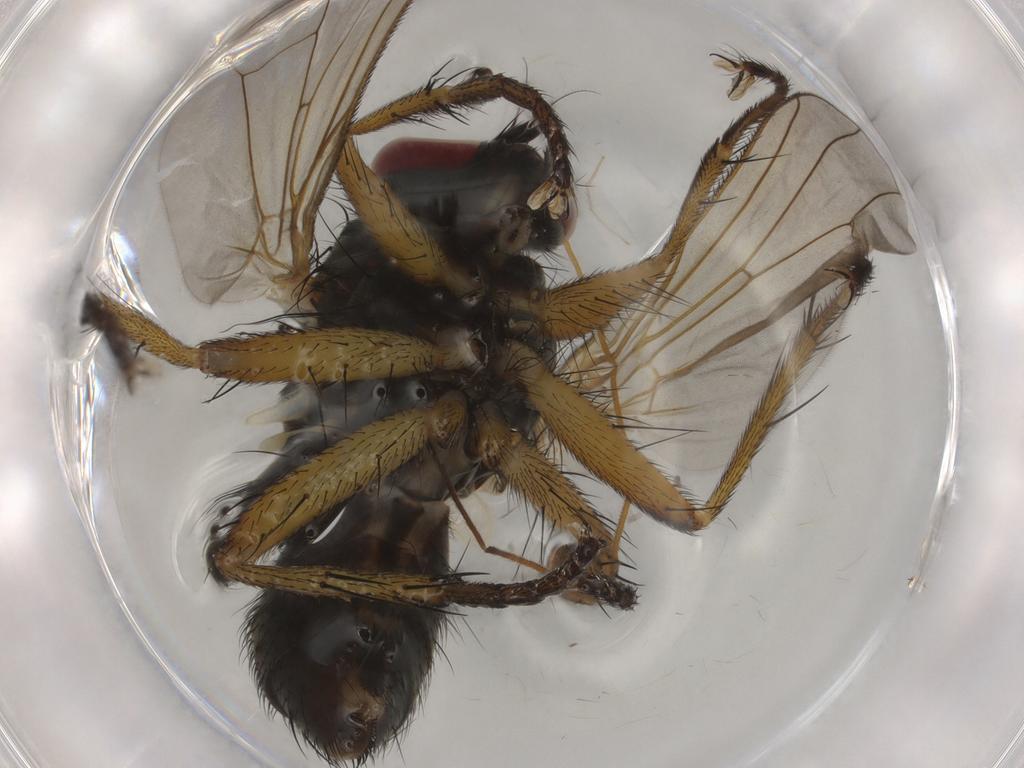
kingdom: Animalia
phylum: Arthropoda
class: Insecta
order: Diptera
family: Muscidae
